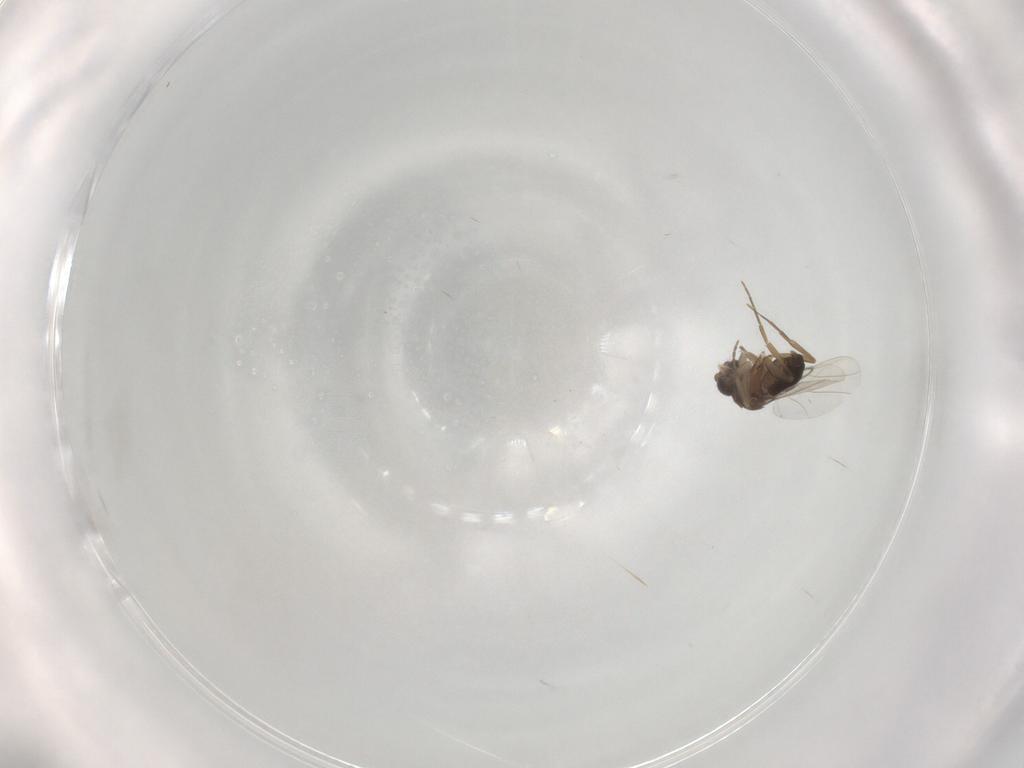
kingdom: Animalia
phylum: Arthropoda
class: Insecta
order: Diptera
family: Phoridae
